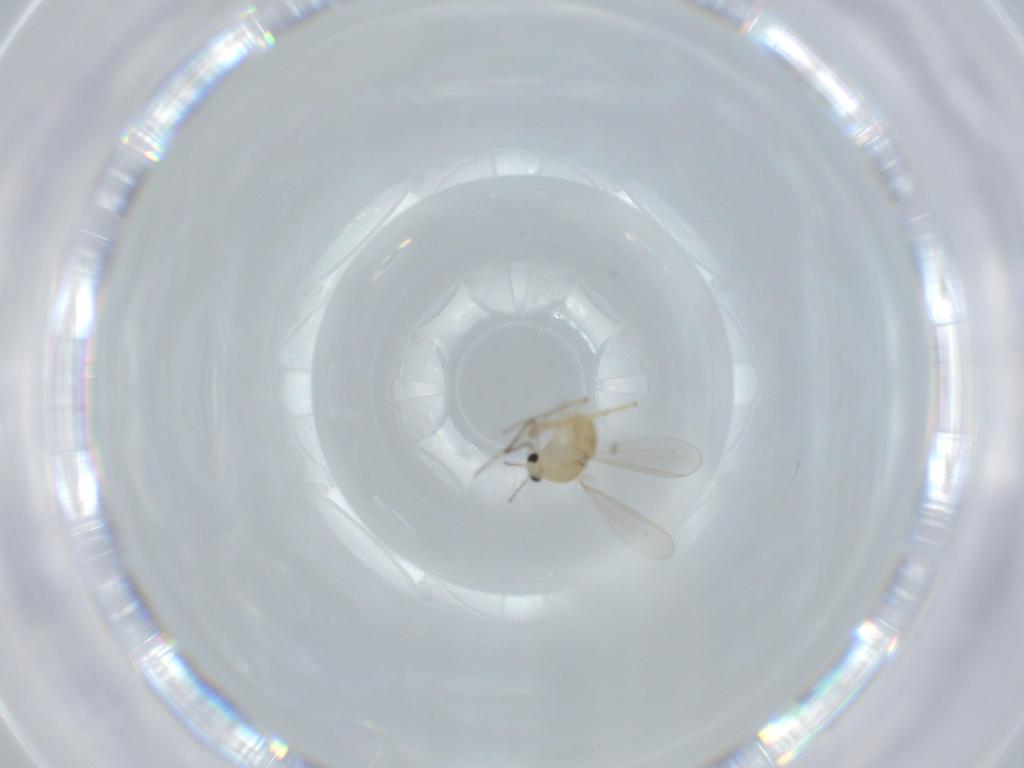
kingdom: Animalia
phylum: Arthropoda
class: Insecta
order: Diptera
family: Chironomidae
